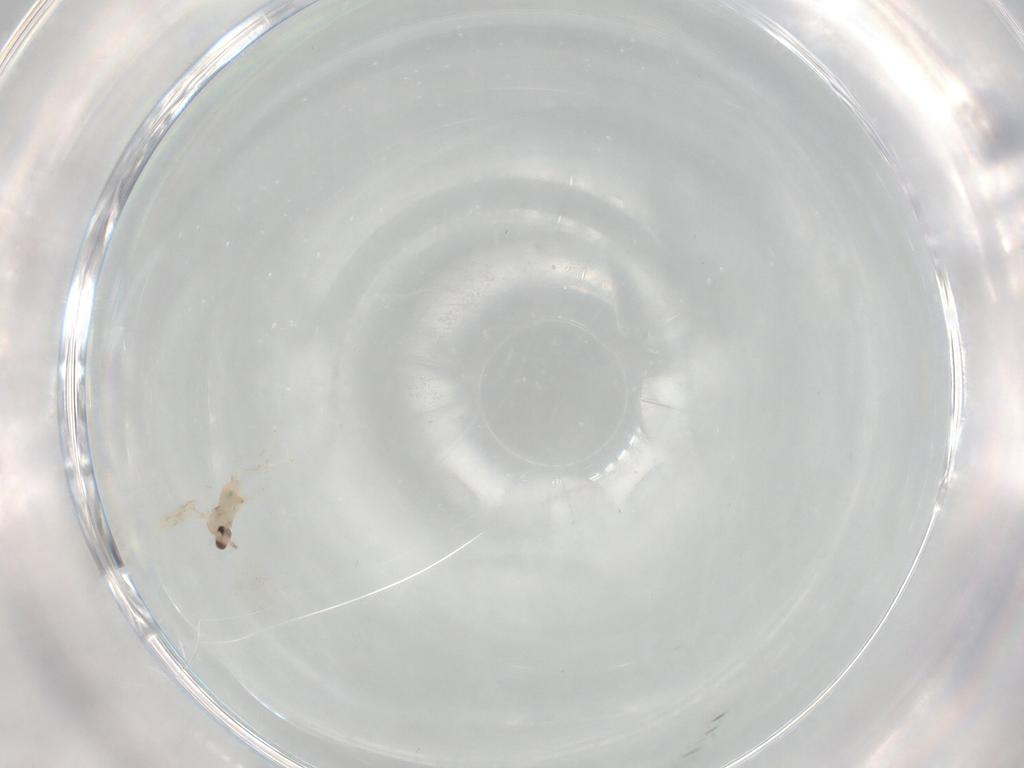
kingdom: Animalia
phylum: Arthropoda
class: Insecta
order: Diptera
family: Cecidomyiidae
